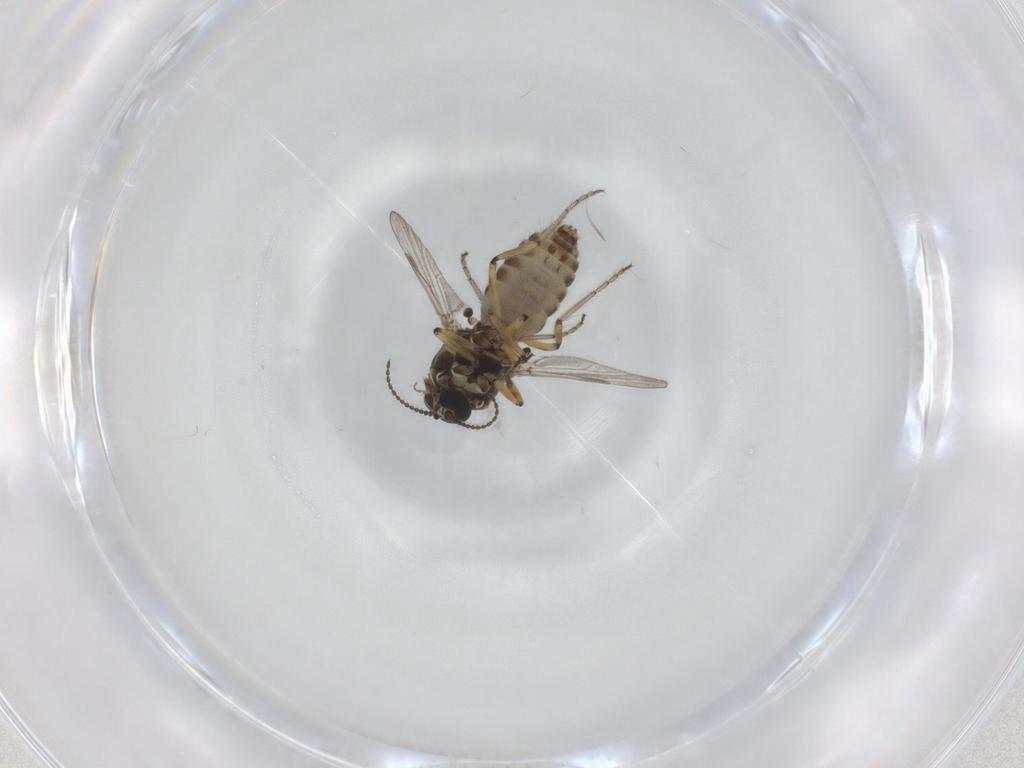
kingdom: Animalia
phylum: Arthropoda
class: Insecta
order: Diptera
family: Ceratopogonidae
